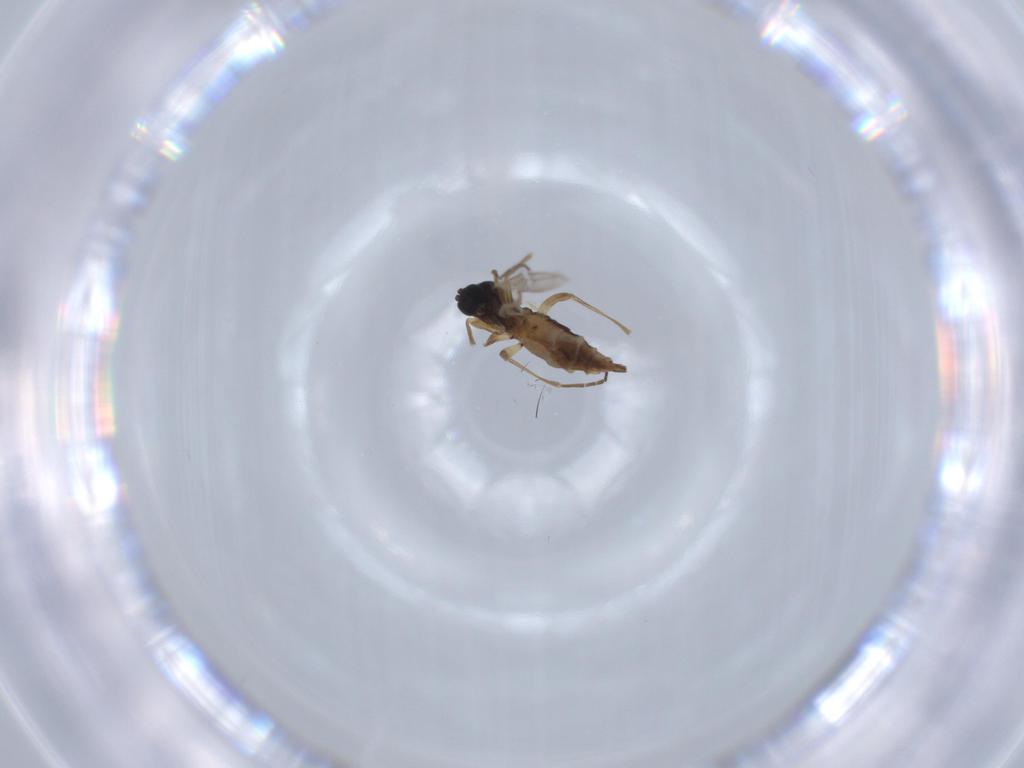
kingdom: Animalia
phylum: Arthropoda
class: Insecta
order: Diptera
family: Sciaridae
